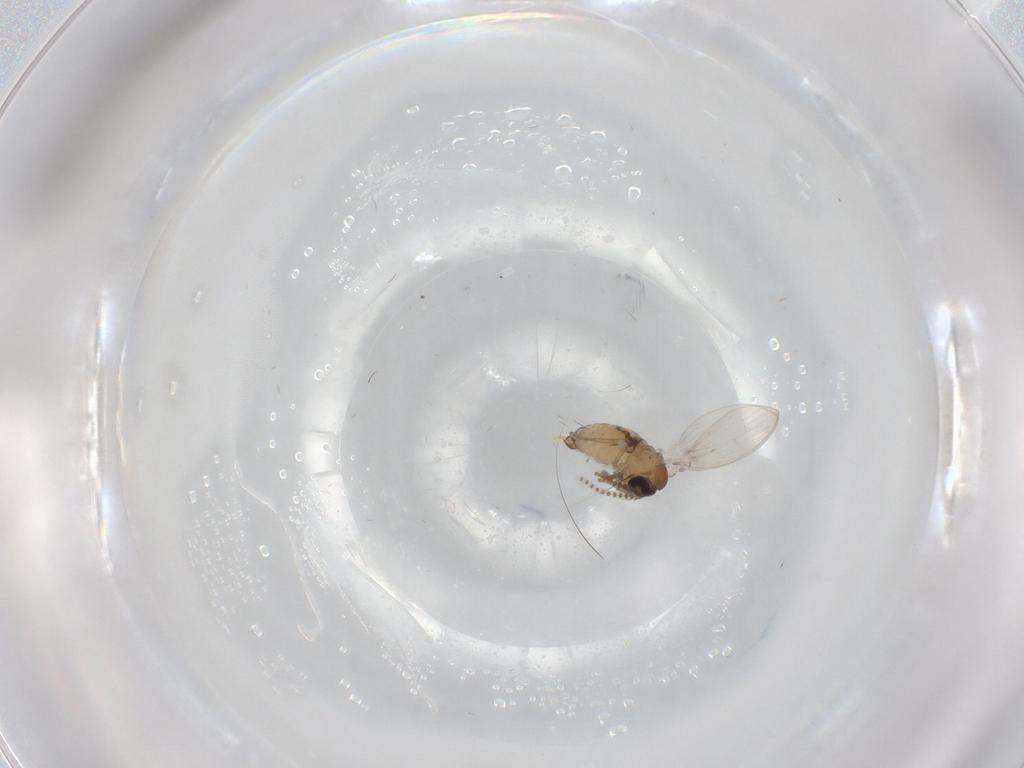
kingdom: Animalia
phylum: Arthropoda
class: Insecta
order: Diptera
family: Psychodidae
